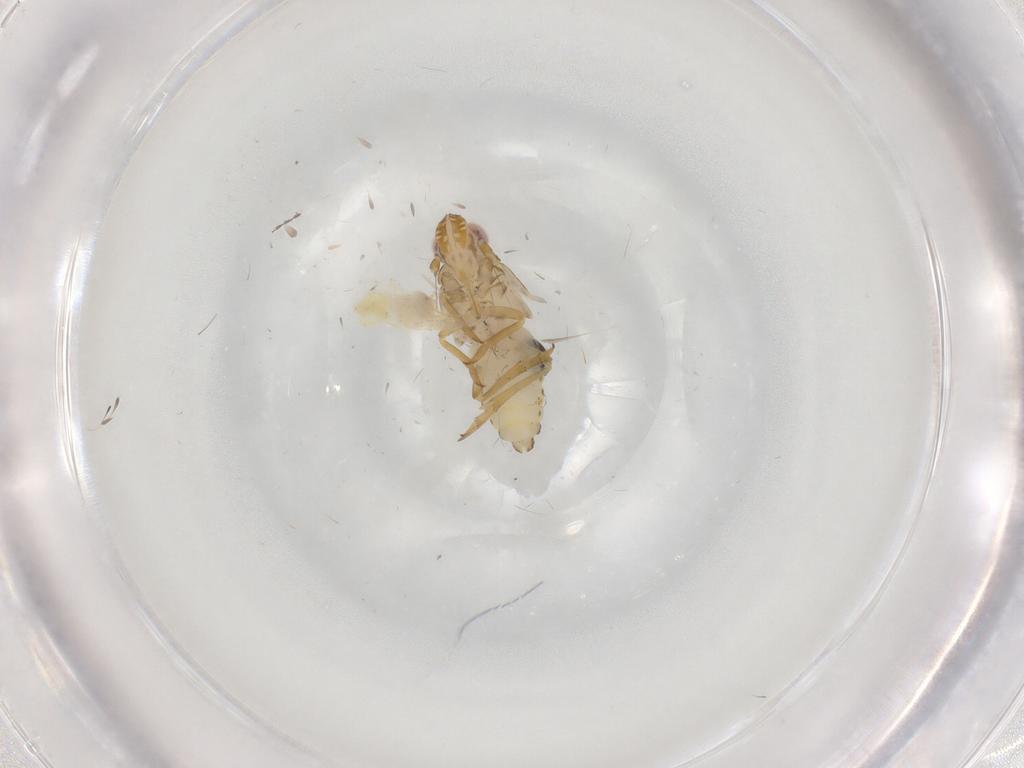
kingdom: Animalia
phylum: Arthropoda
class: Insecta
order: Hemiptera
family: Delphacidae
